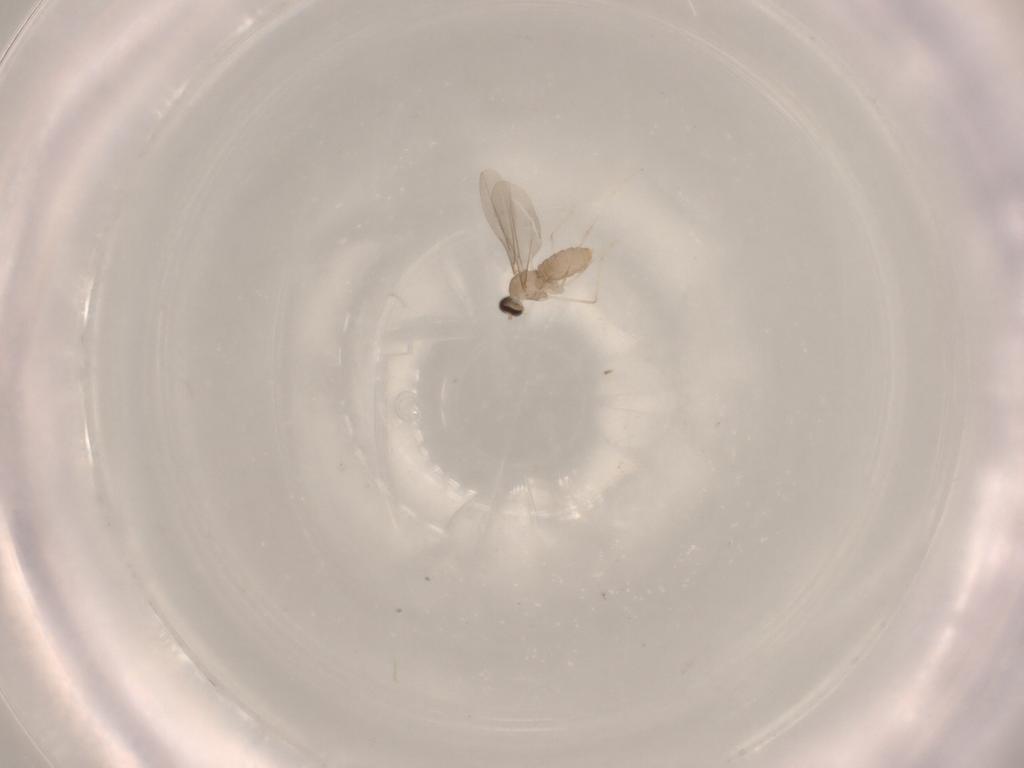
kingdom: Animalia
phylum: Arthropoda
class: Insecta
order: Diptera
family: Cecidomyiidae
